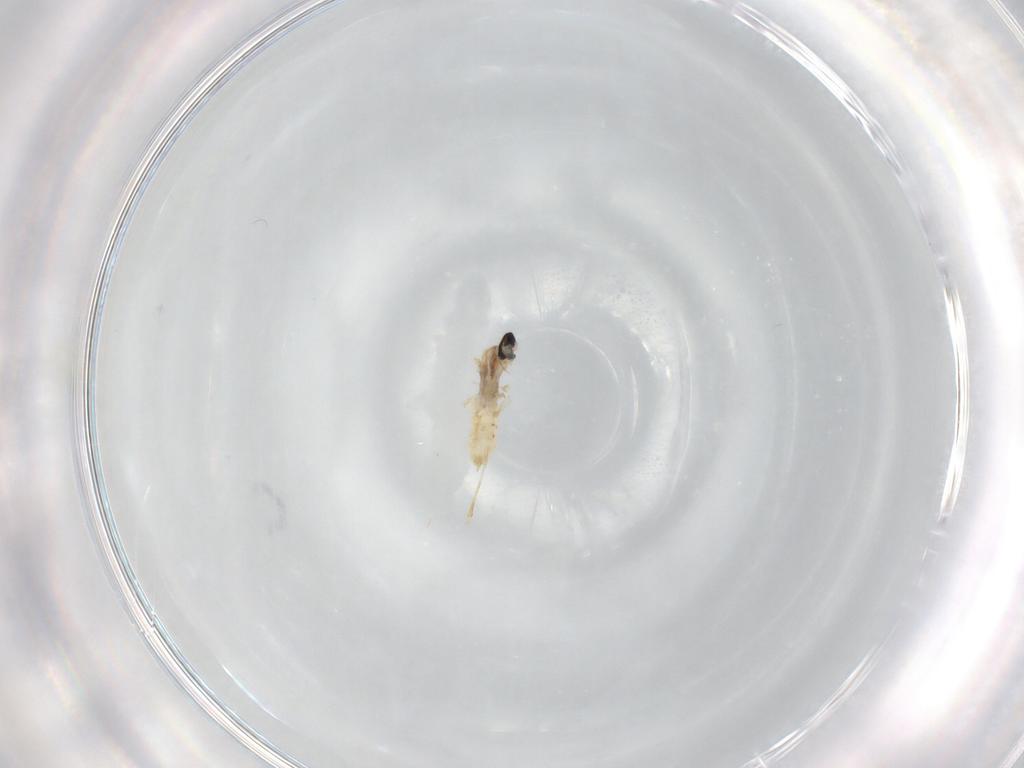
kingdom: Animalia
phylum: Arthropoda
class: Insecta
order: Diptera
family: Cecidomyiidae
